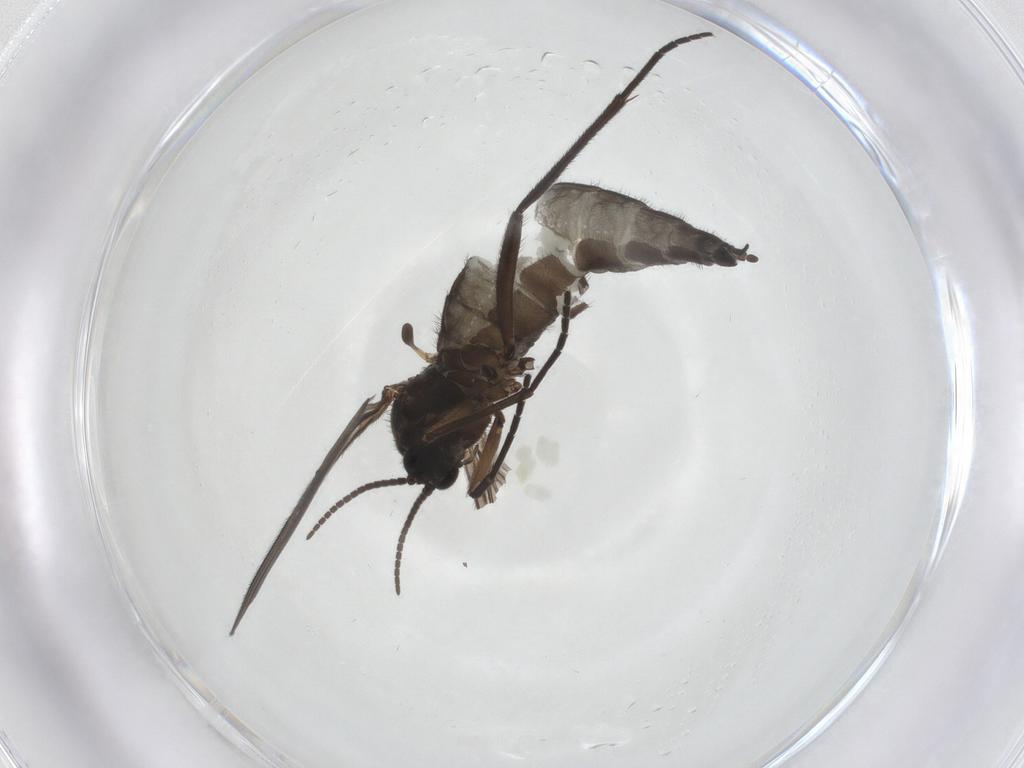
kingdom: Animalia
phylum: Arthropoda
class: Insecta
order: Diptera
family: Sciaridae
